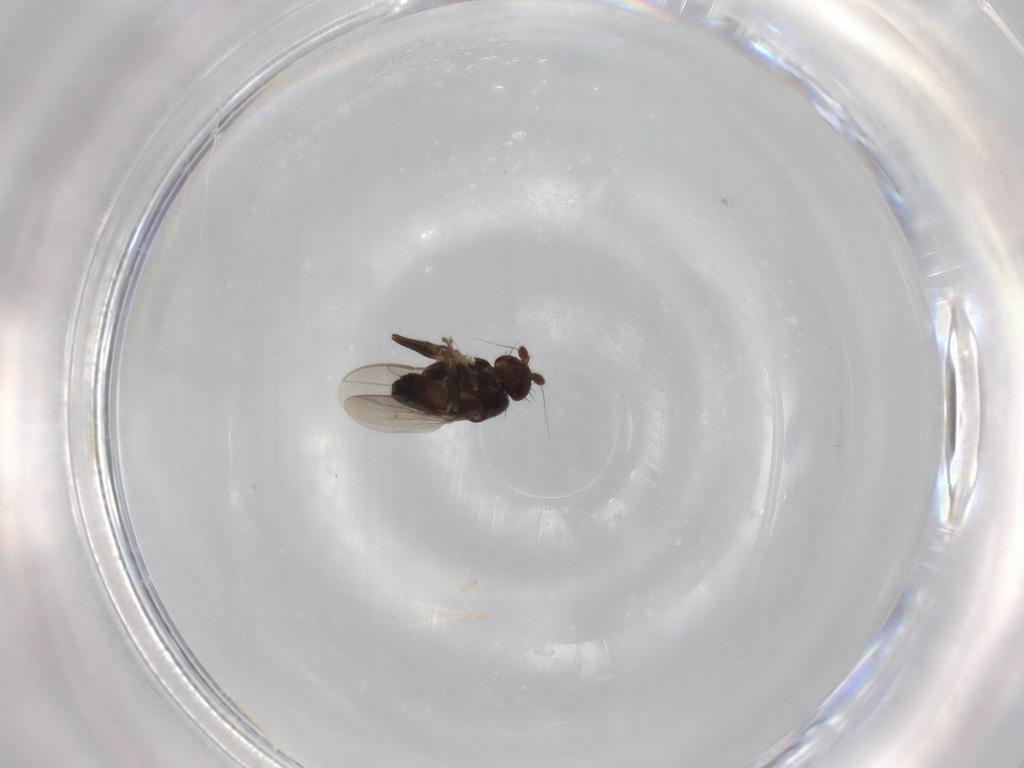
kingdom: Animalia
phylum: Arthropoda
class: Insecta
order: Diptera
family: Sphaeroceridae
